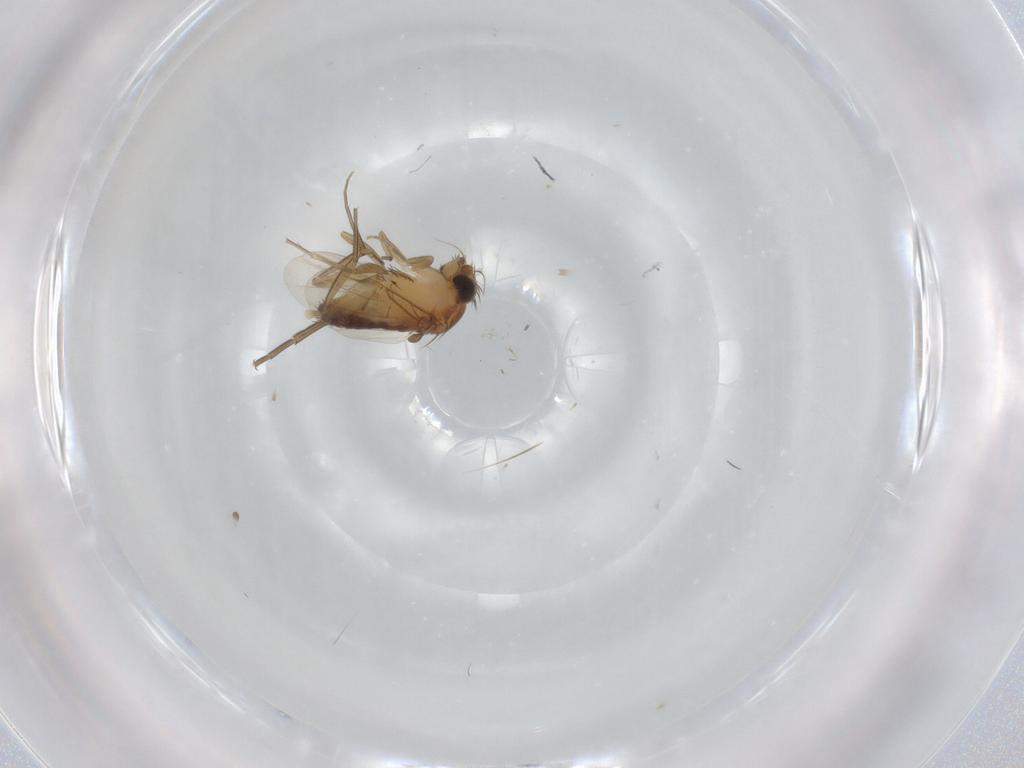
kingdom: Animalia
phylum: Arthropoda
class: Insecta
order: Diptera
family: Phoridae
